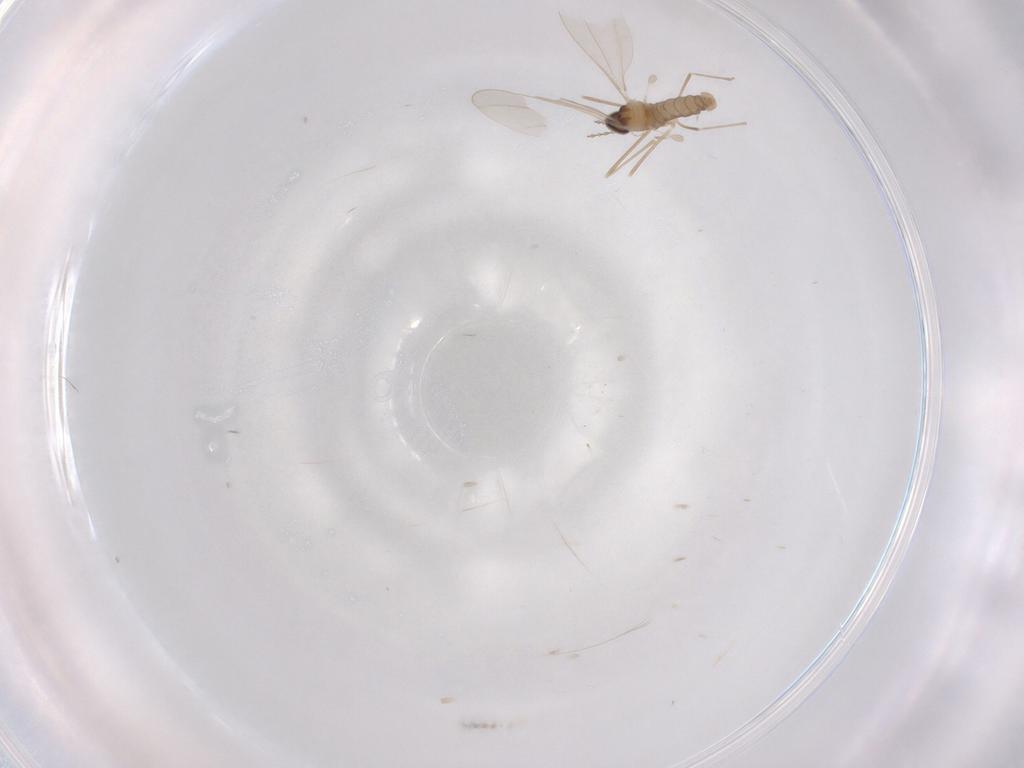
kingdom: Animalia
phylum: Arthropoda
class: Insecta
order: Diptera
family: Cecidomyiidae
